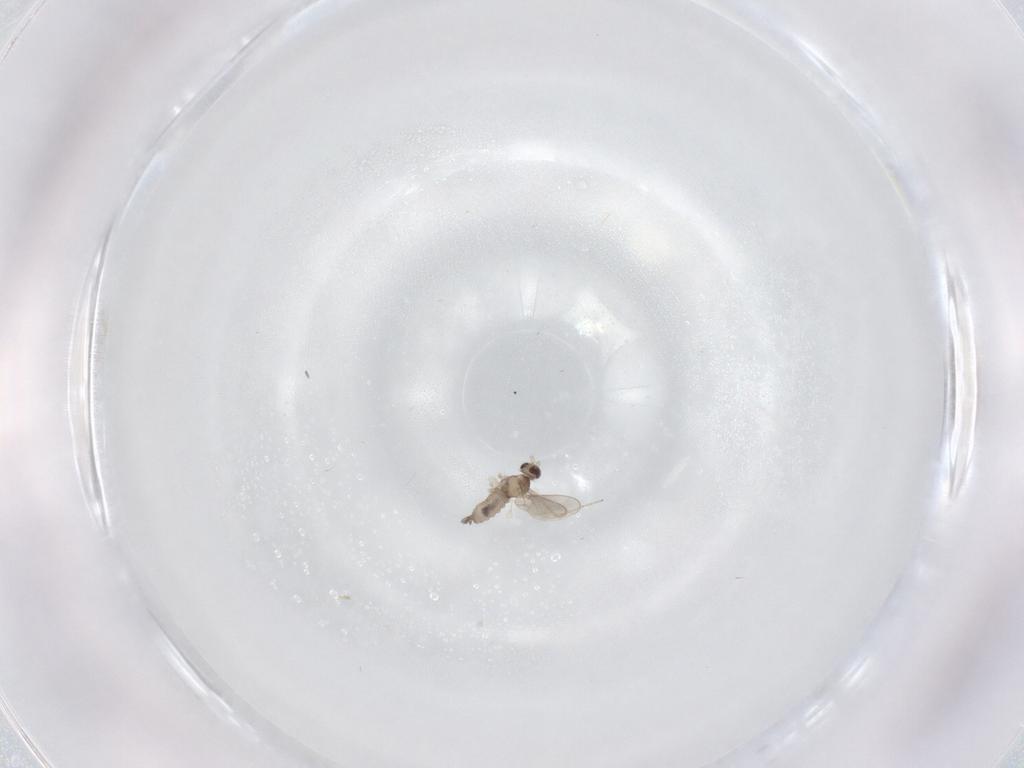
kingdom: Animalia
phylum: Arthropoda
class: Insecta
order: Diptera
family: Cecidomyiidae
